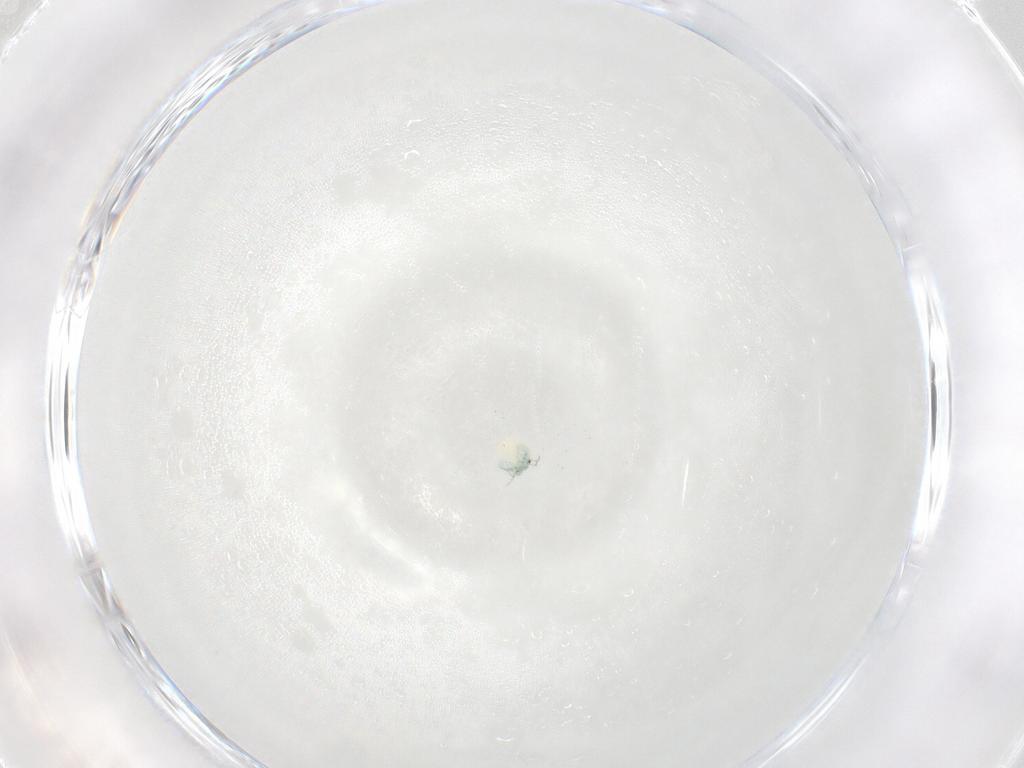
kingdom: Animalia
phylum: Arthropoda
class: Arachnida
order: Trombidiformes
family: Arrenuridae
